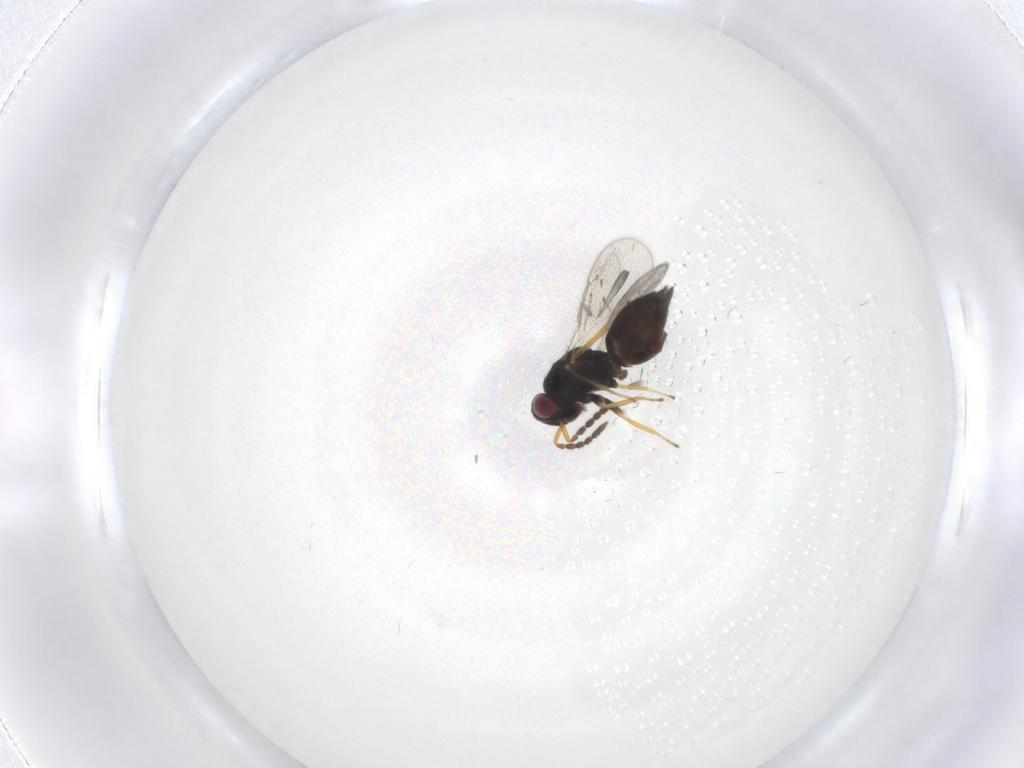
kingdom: Animalia
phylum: Arthropoda
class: Insecta
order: Hymenoptera
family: Eulophidae
